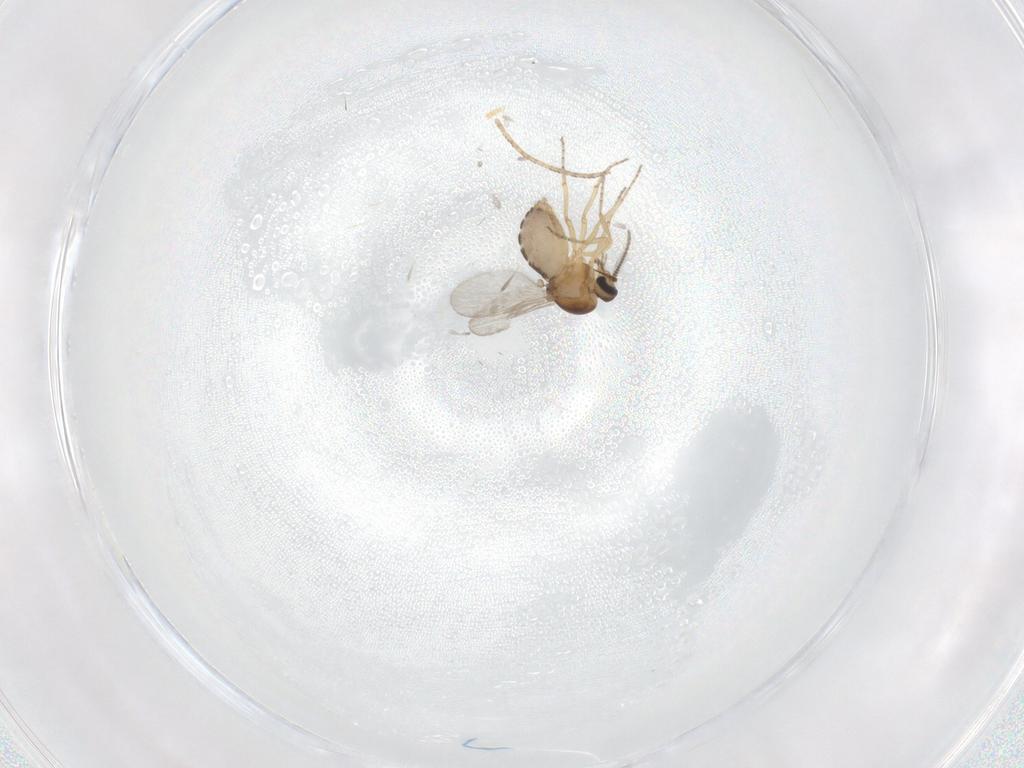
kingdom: Animalia
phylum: Arthropoda
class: Insecta
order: Diptera
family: Ceratopogonidae
